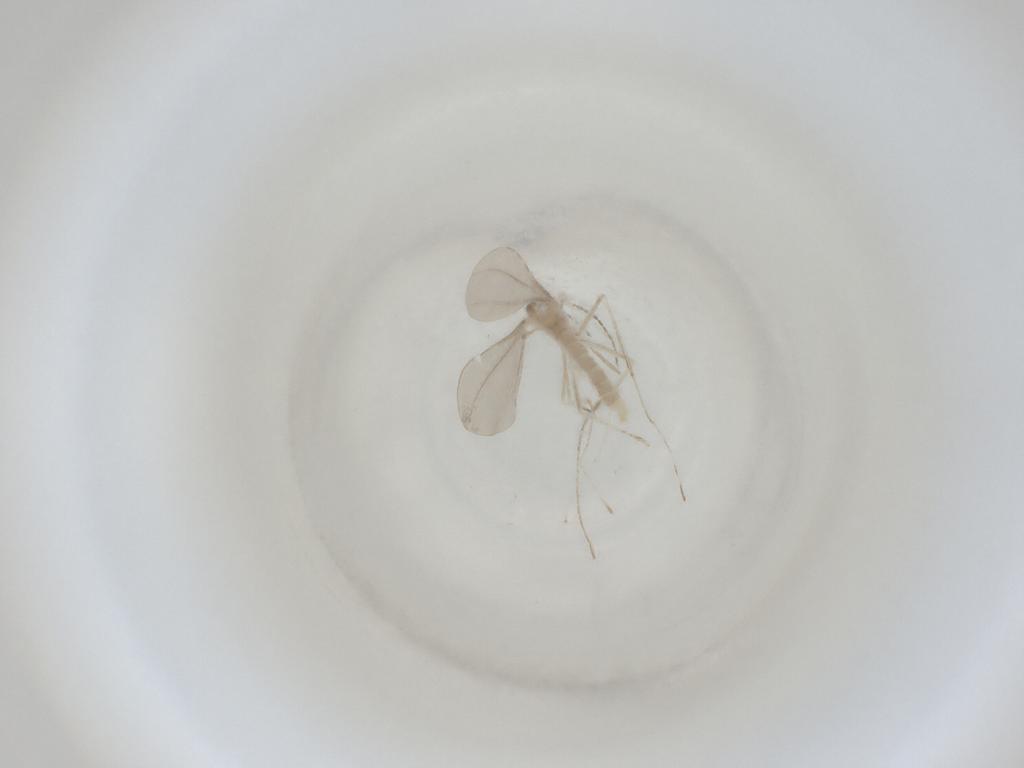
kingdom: Animalia
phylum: Arthropoda
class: Insecta
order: Diptera
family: Cecidomyiidae
